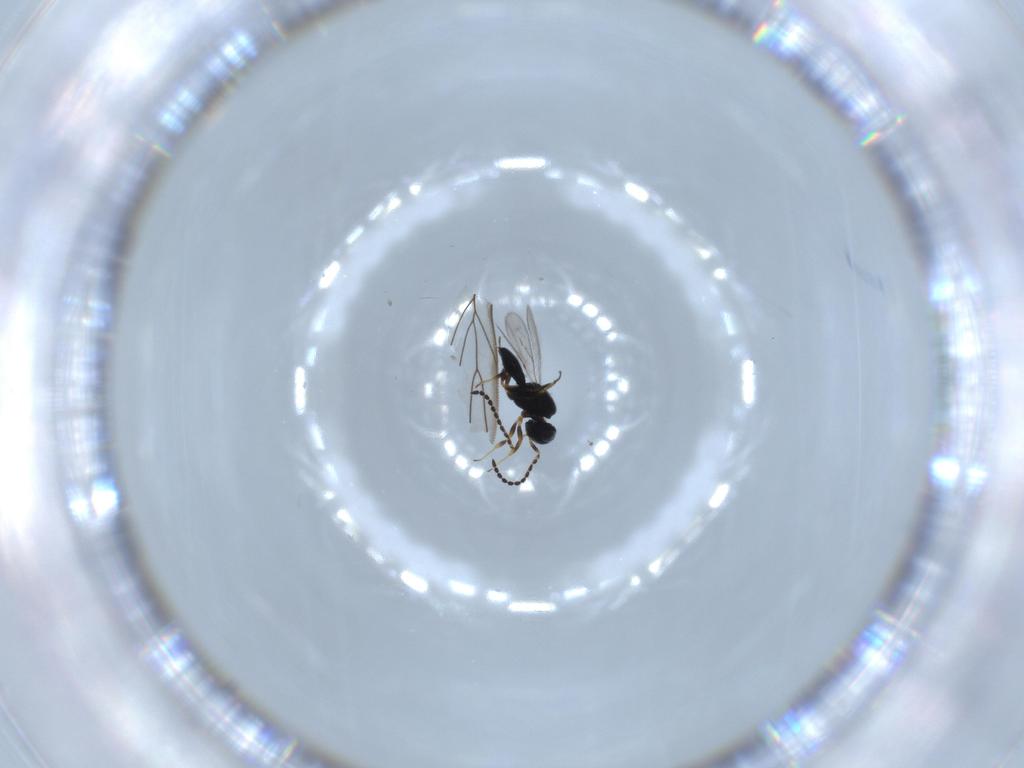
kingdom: Animalia
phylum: Arthropoda
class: Insecta
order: Hymenoptera
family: Scelionidae
